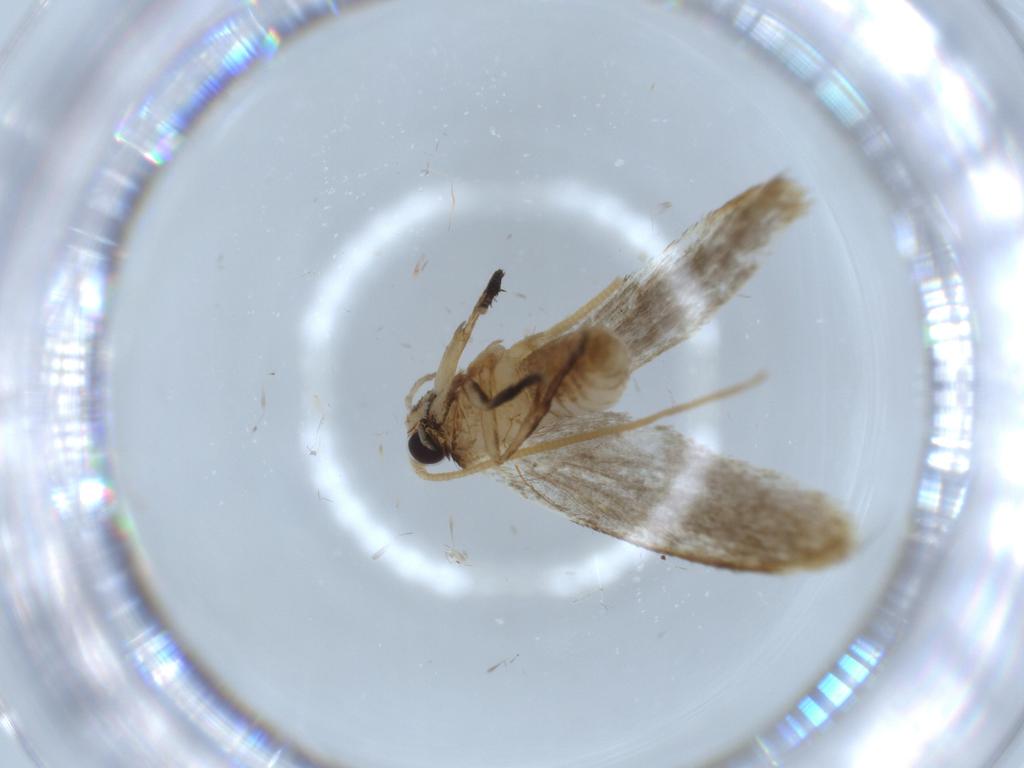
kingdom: Animalia
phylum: Arthropoda
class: Insecta
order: Lepidoptera
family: Tineidae
